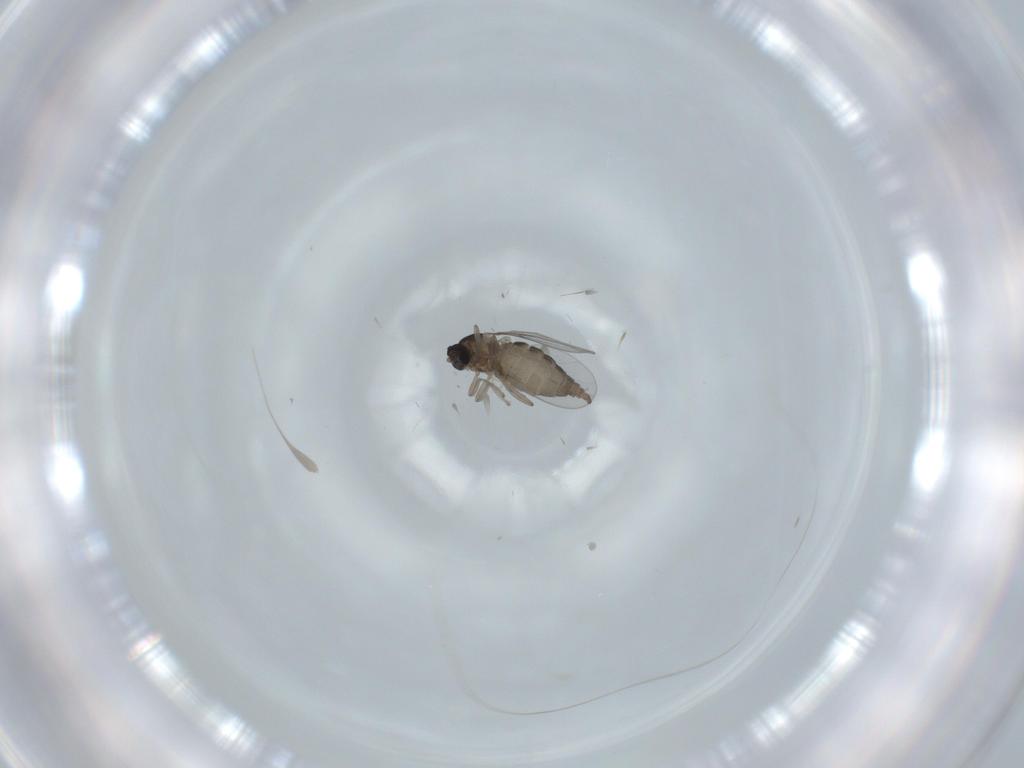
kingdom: Animalia
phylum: Arthropoda
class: Insecta
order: Diptera
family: Cecidomyiidae
